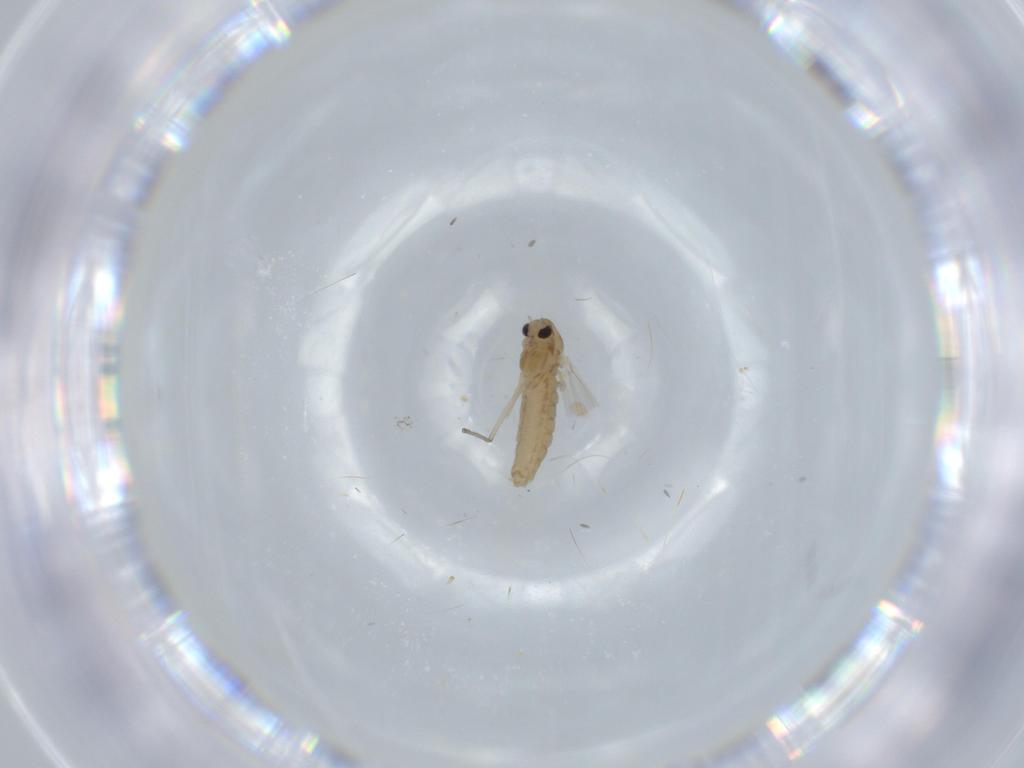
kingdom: Animalia
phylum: Arthropoda
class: Insecta
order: Diptera
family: Chironomidae
